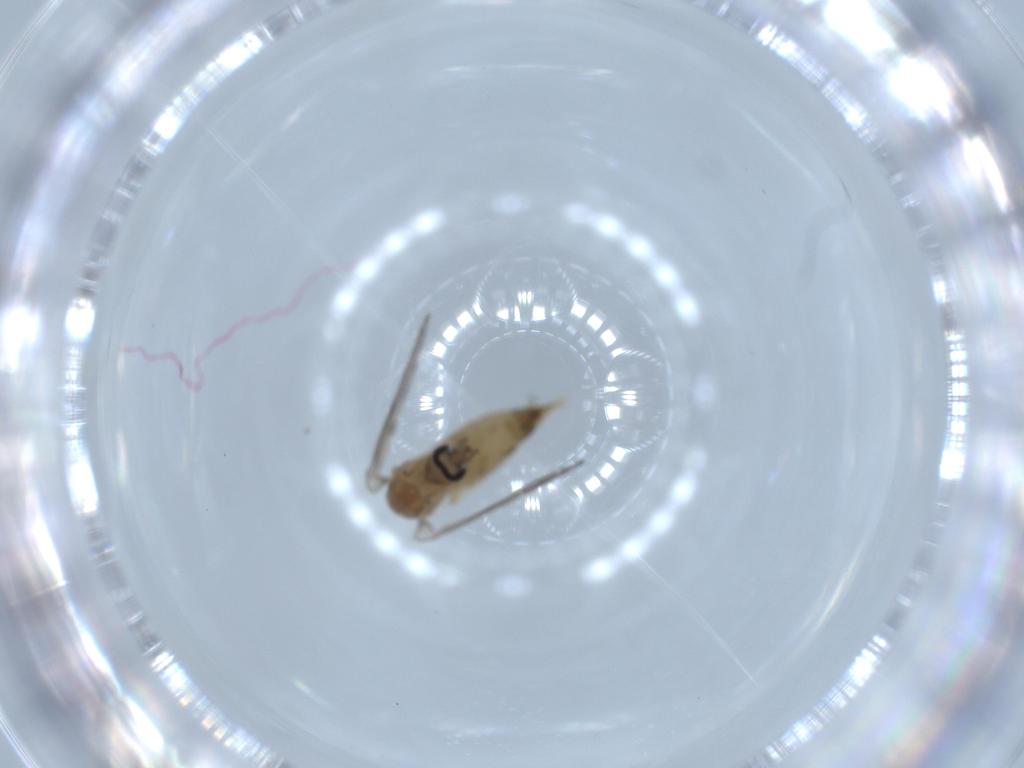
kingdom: Animalia
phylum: Arthropoda
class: Insecta
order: Diptera
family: Psychodidae
